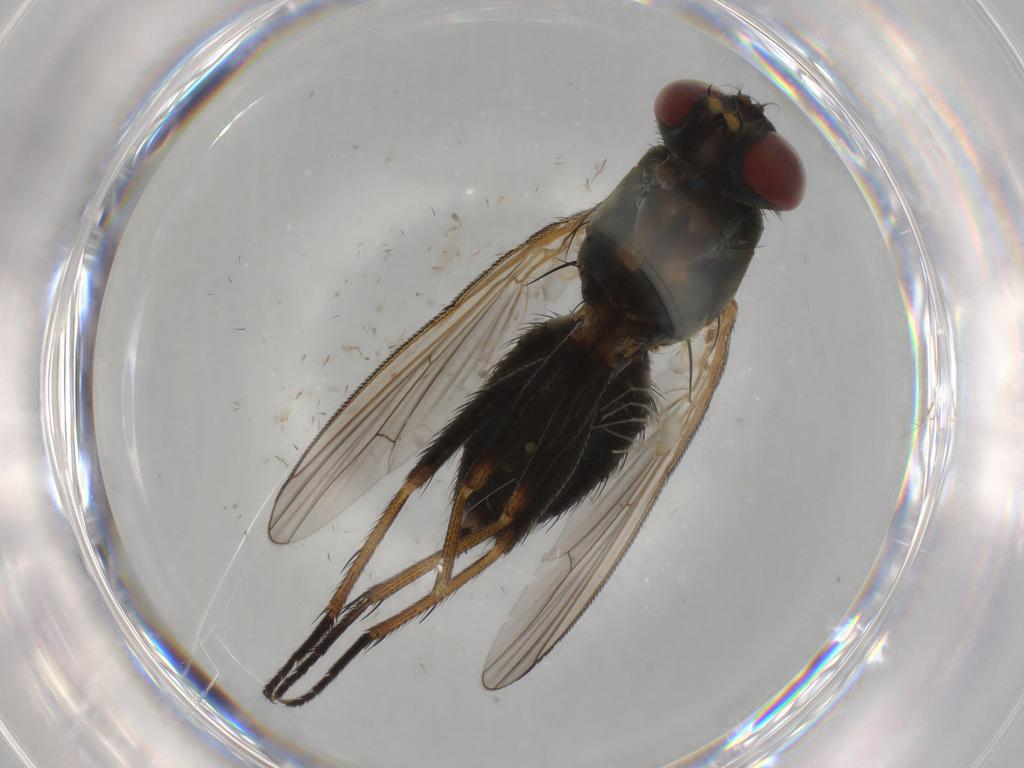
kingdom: Animalia
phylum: Arthropoda
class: Insecta
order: Diptera
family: Muscidae
